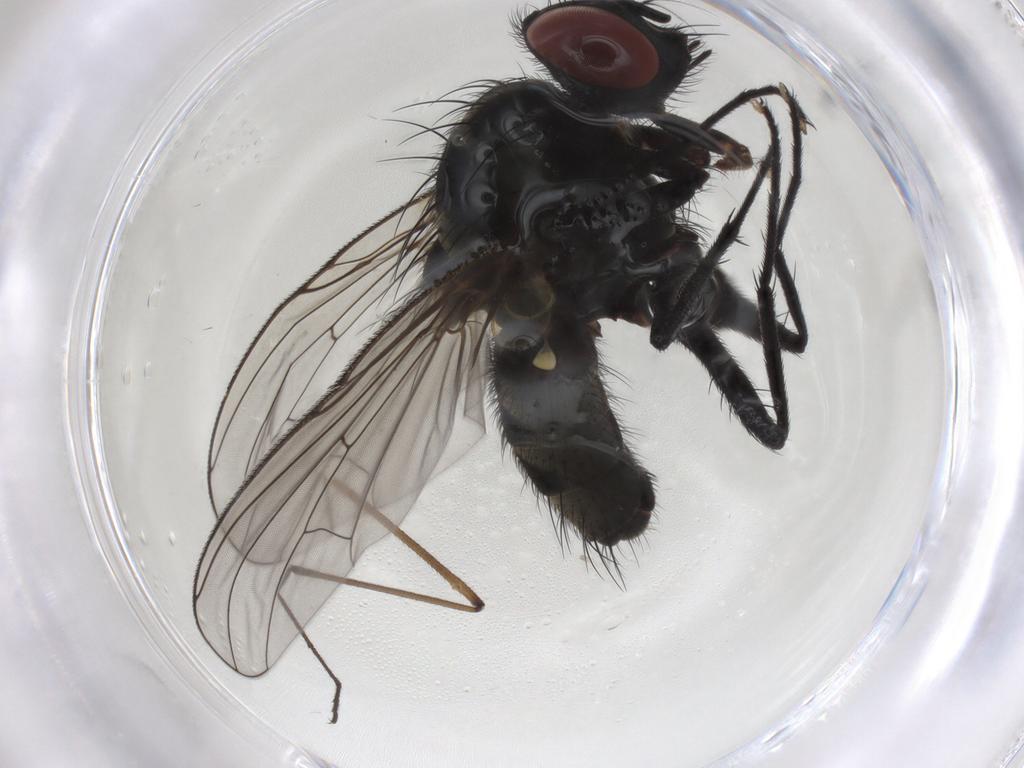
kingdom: Animalia
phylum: Arthropoda
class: Insecta
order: Diptera
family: Muscidae
